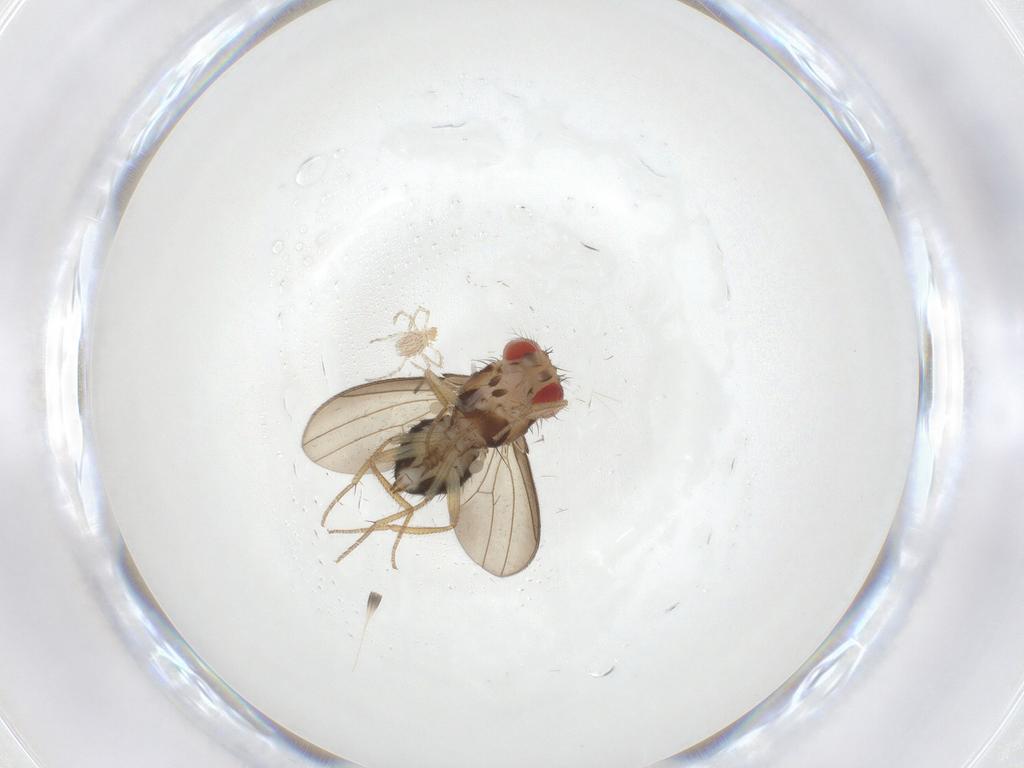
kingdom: Animalia
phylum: Arthropoda
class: Insecta
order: Diptera
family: Drosophilidae
